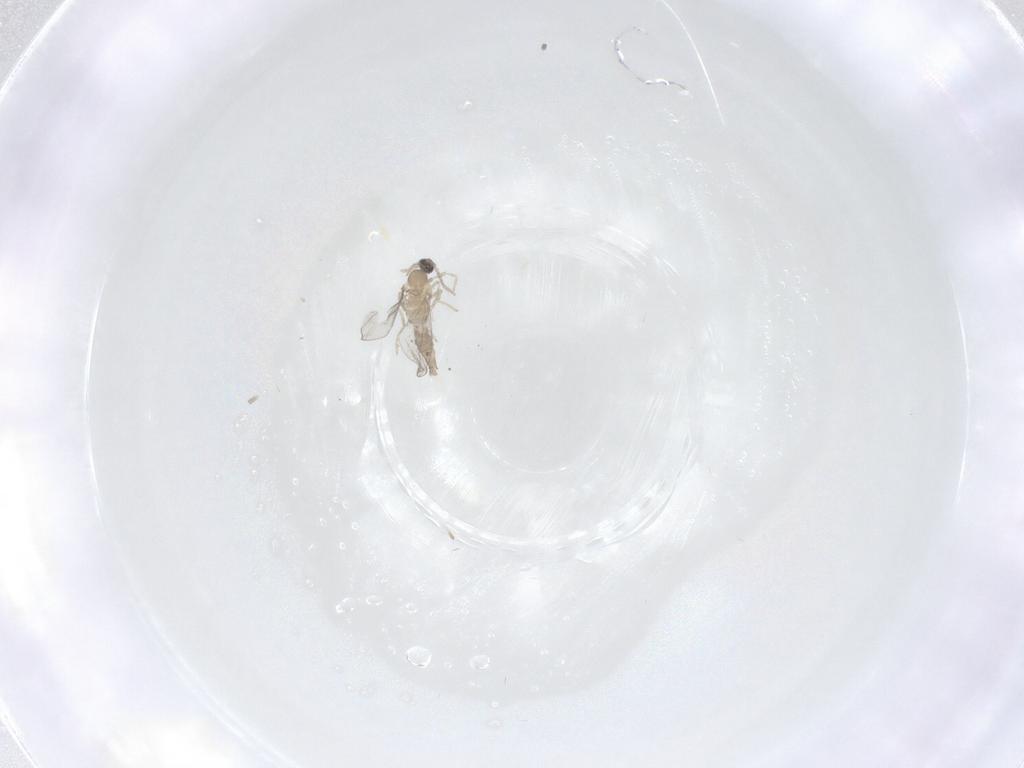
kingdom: Animalia
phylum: Arthropoda
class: Insecta
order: Diptera
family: Cecidomyiidae
